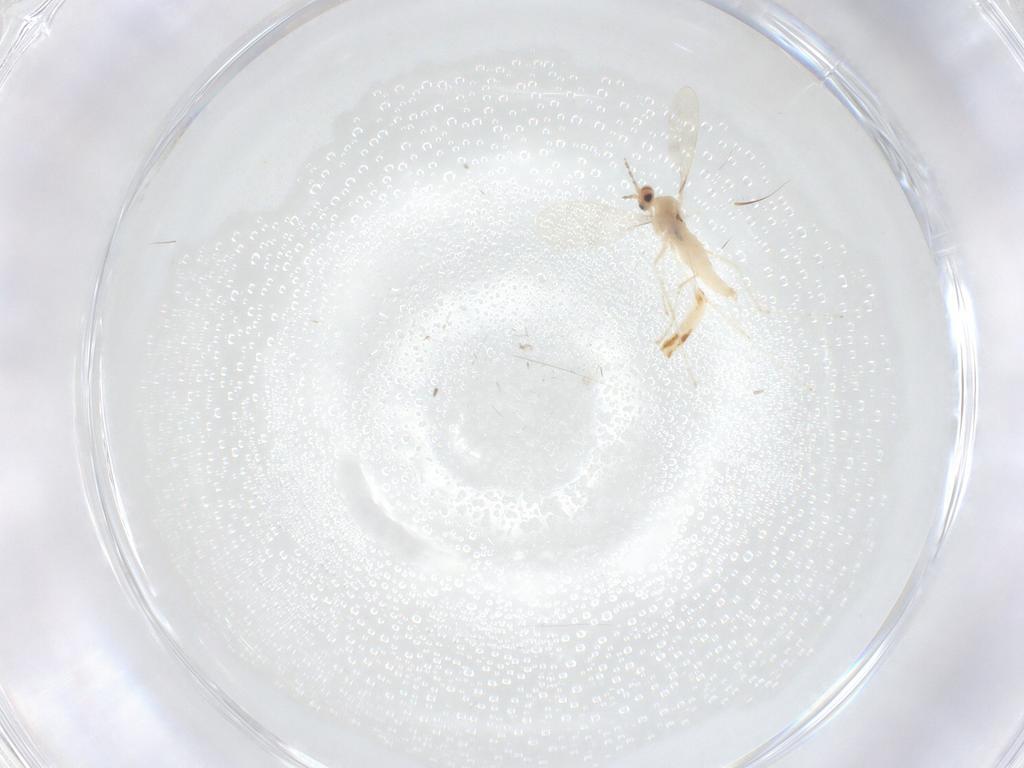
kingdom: Animalia
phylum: Arthropoda
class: Insecta
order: Diptera
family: Cecidomyiidae
